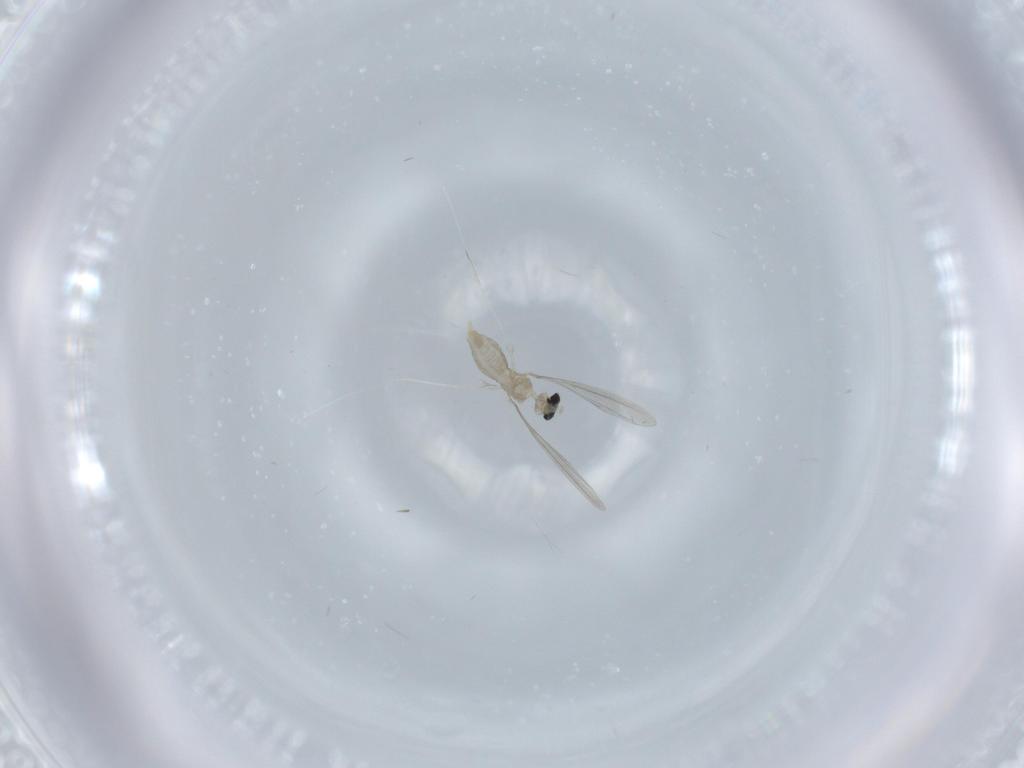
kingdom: Animalia
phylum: Arthropoda
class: Insecta
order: Diptera
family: Cecidomyiidae
